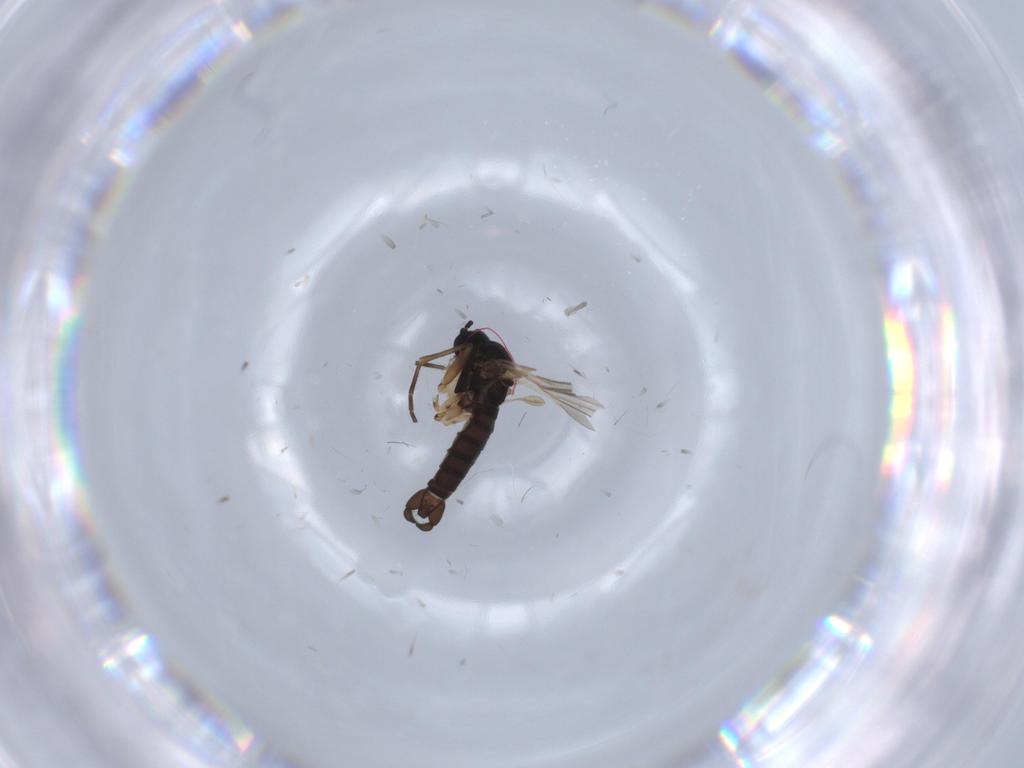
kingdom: Animalia
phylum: Arthropoda
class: Insecta
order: Diptera
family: Sciaridae
